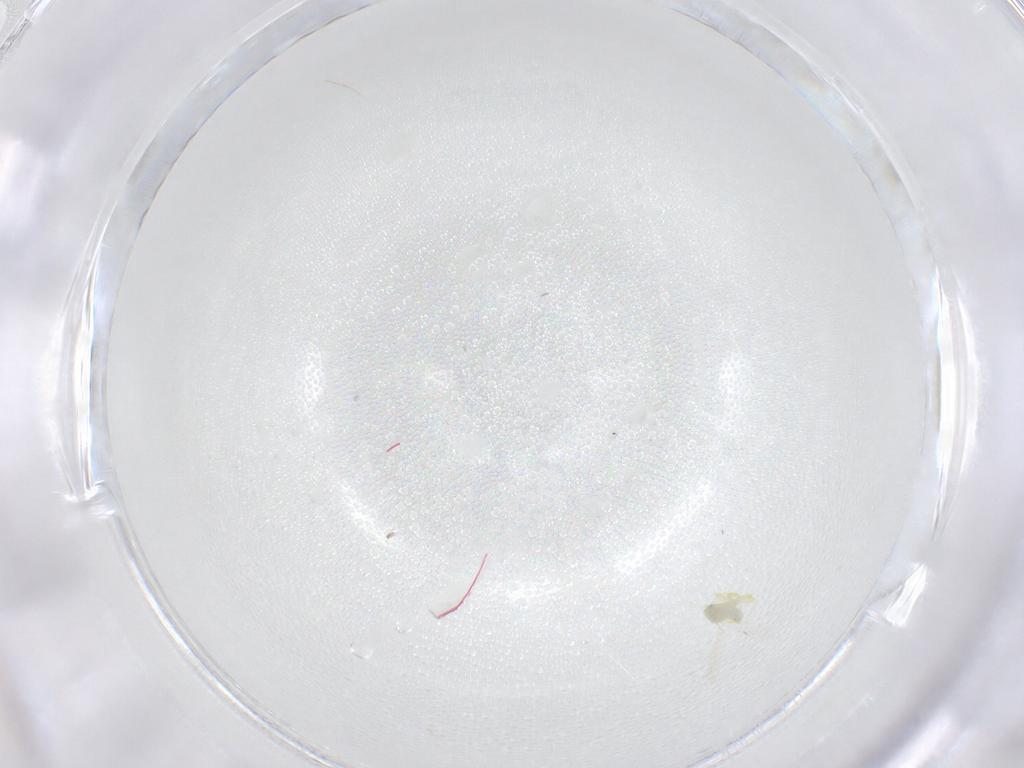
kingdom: Animalia
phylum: Arthropoda
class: Insecta
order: Hemiptera
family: Aleyrodidae
